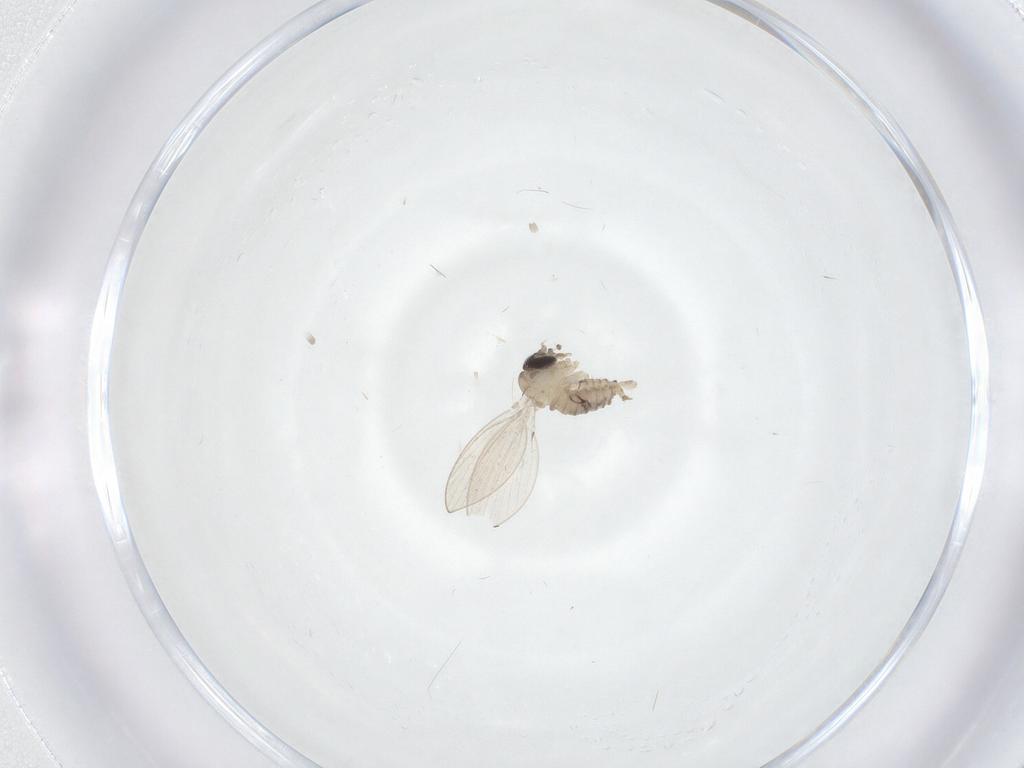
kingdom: Animalia
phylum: Arthropoda
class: Insecta
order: Diptera
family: Psychodidae
